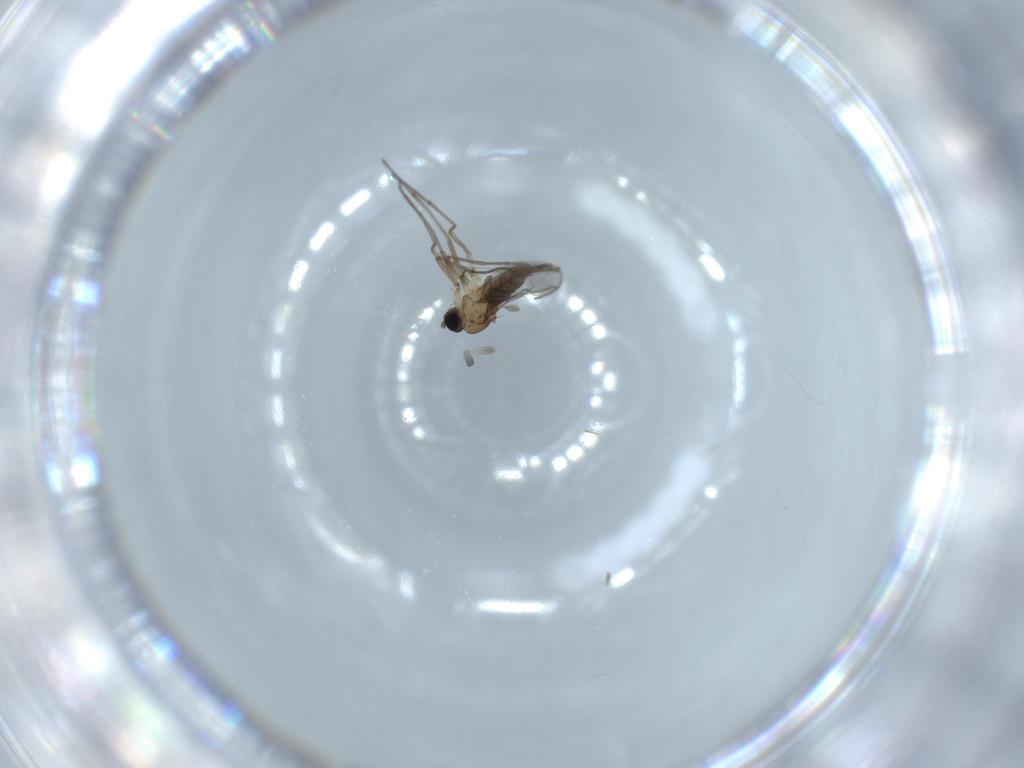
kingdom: Animalia
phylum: Arthropoda
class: Insecta
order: Diptera
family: Sciaridae
